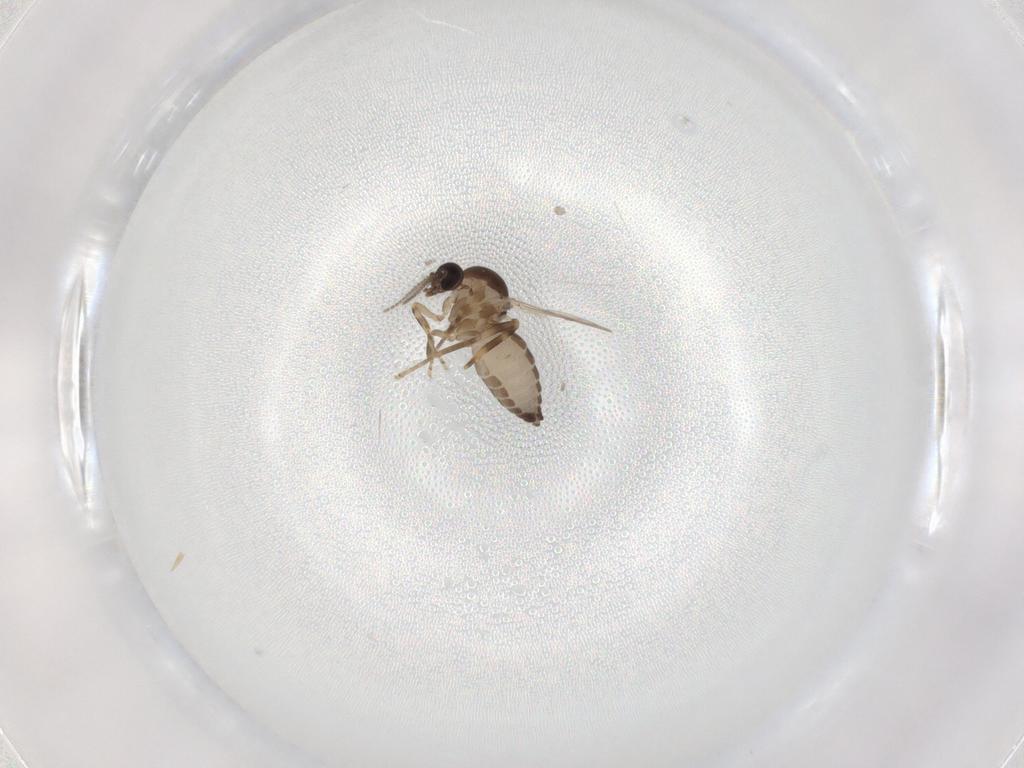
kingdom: Animalia
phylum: Arthropoda
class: Insecta
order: Diptera
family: Ceratopogonidae
